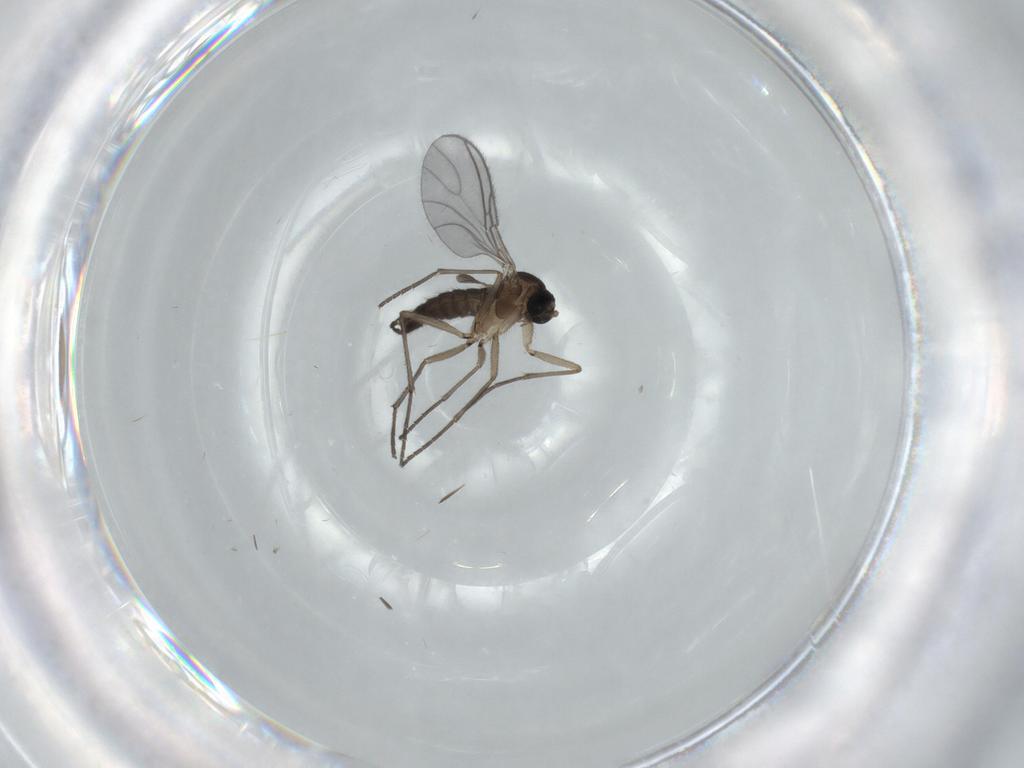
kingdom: Animalia
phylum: Arthropoda
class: Insecta
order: Diptera
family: Sciaridae
